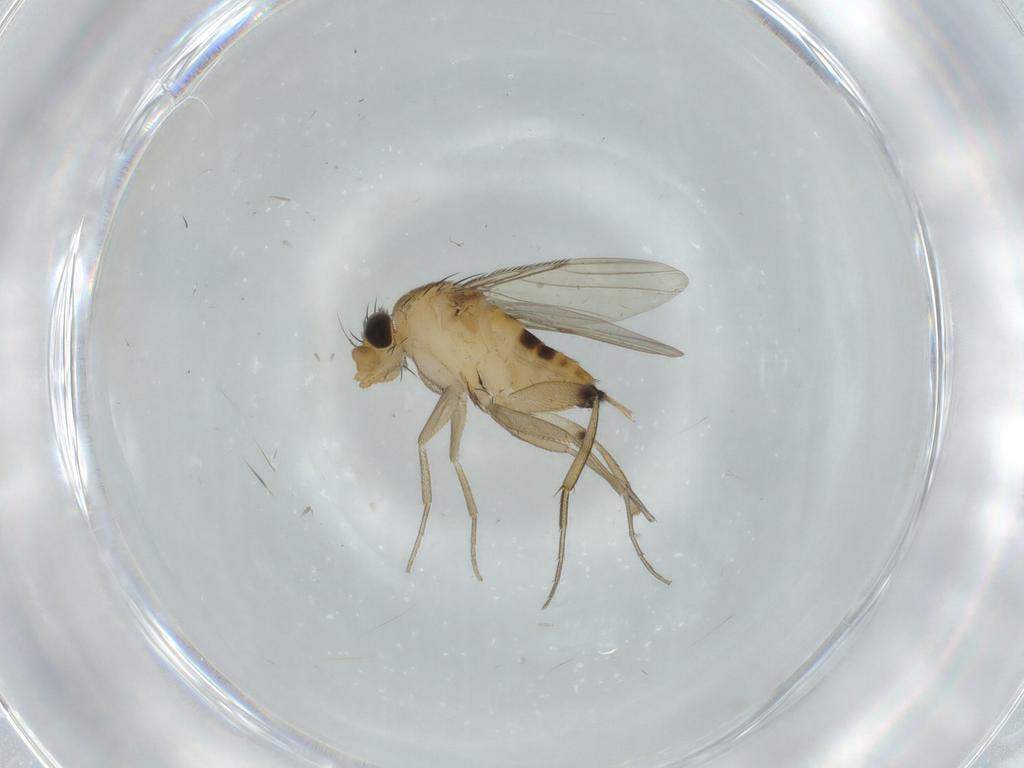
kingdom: Animalia
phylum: Arthropoda
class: Insecta
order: Diptera
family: Phoridae
